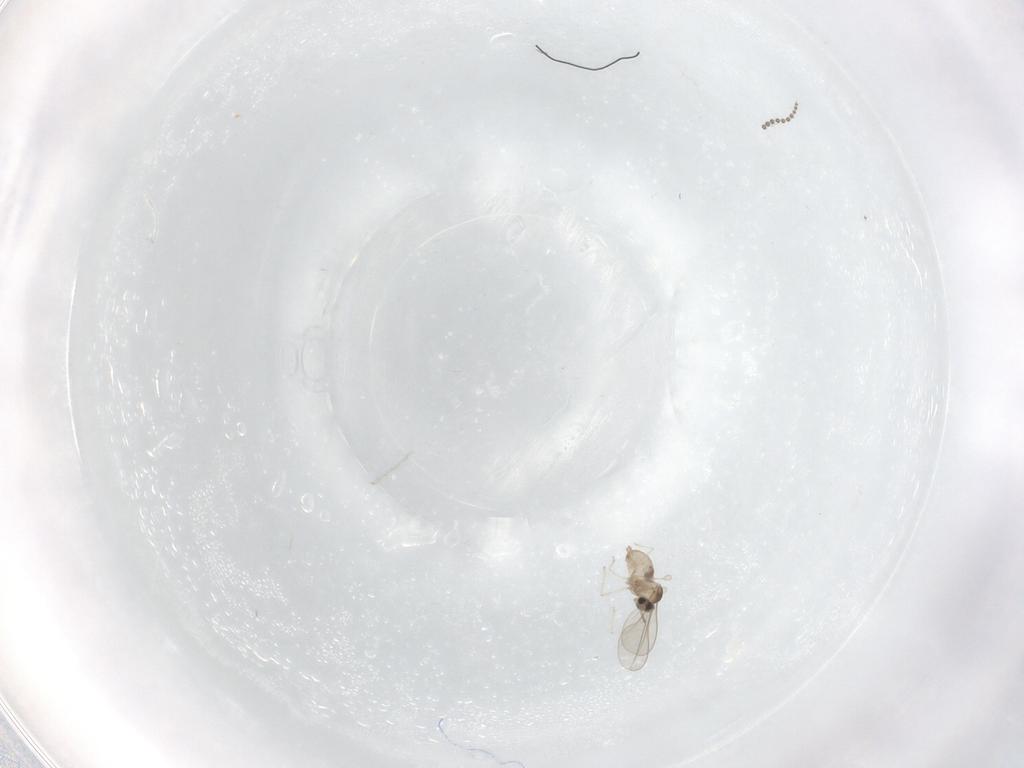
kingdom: Animalia
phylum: Arthropoda
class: Insecta
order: Diptera
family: Cecidomyiidae
